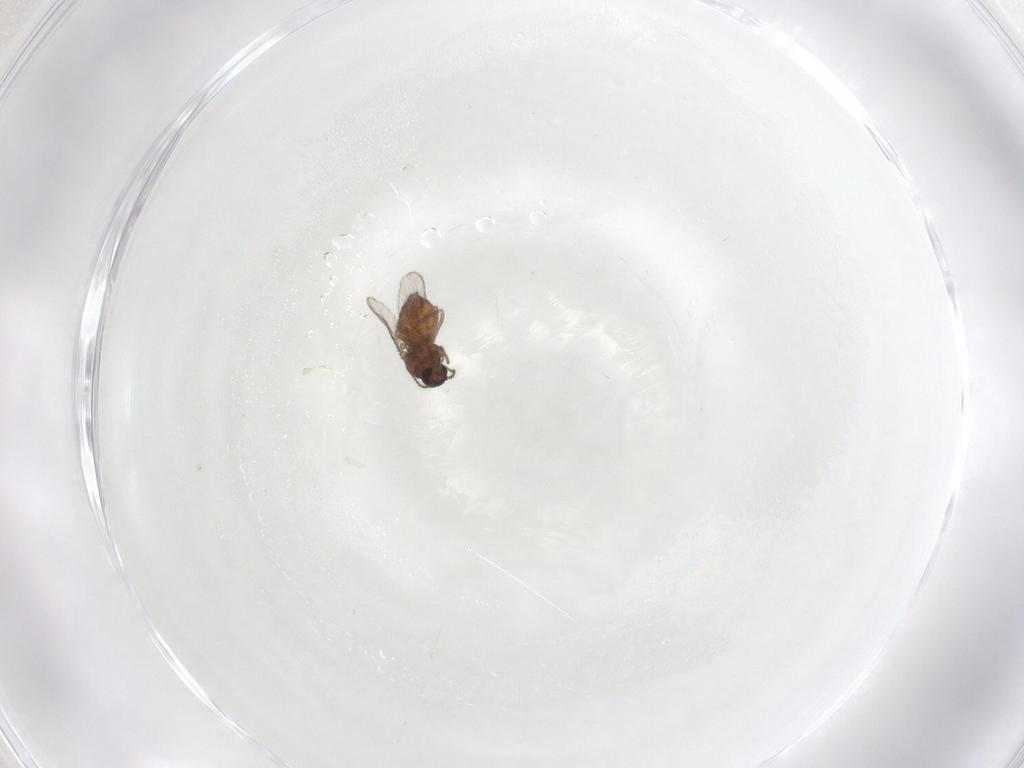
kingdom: Animalia
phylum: Arthropoda
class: Insecta
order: Diptera
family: Ceratopogonidae
